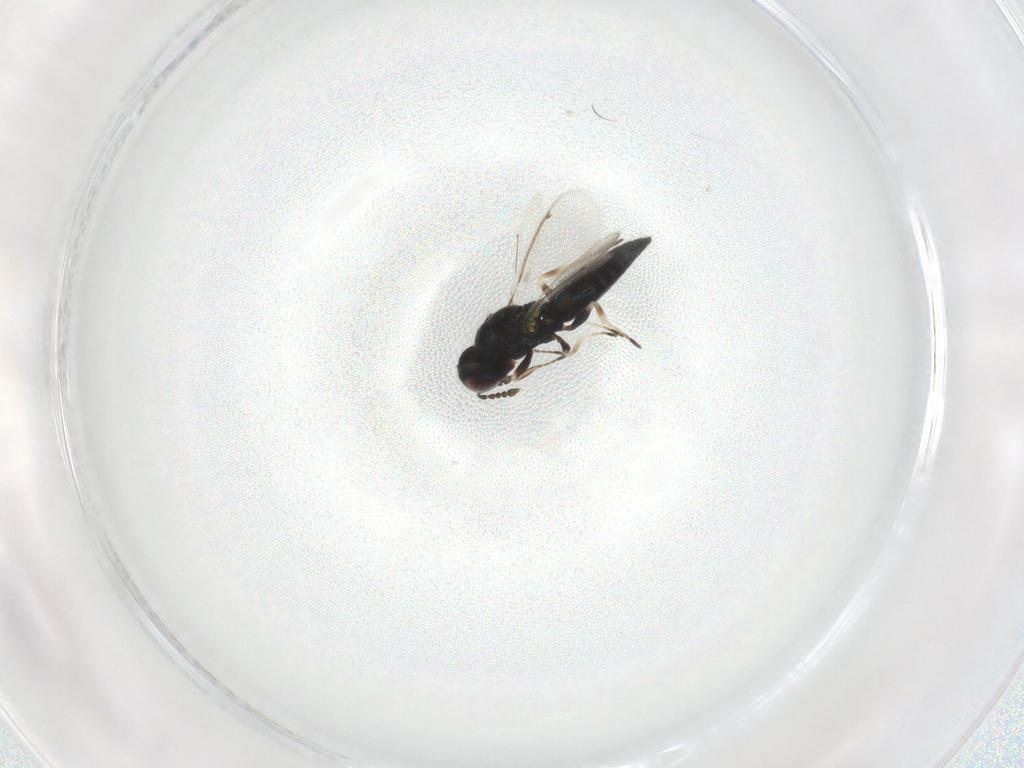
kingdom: Animalia
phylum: Arthropoda
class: Insecta
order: Hymenoptera
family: Eulophidae
